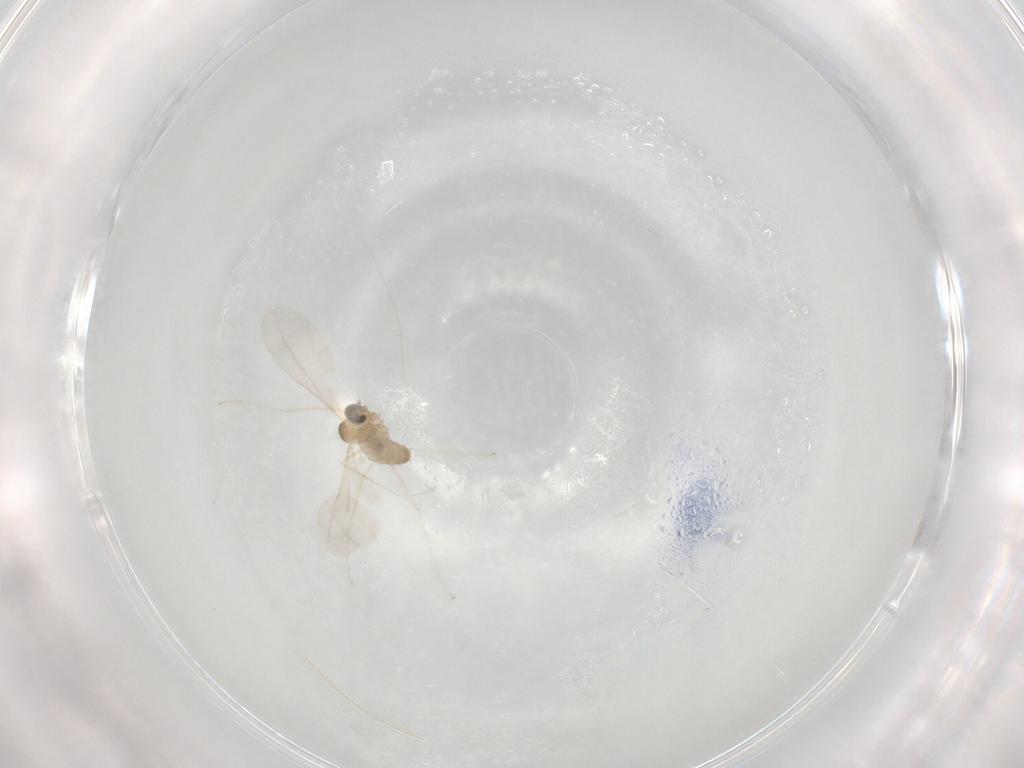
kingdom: Animalia
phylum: Arthropoda
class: Insecta
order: Diptera
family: Cecidomyiidae
